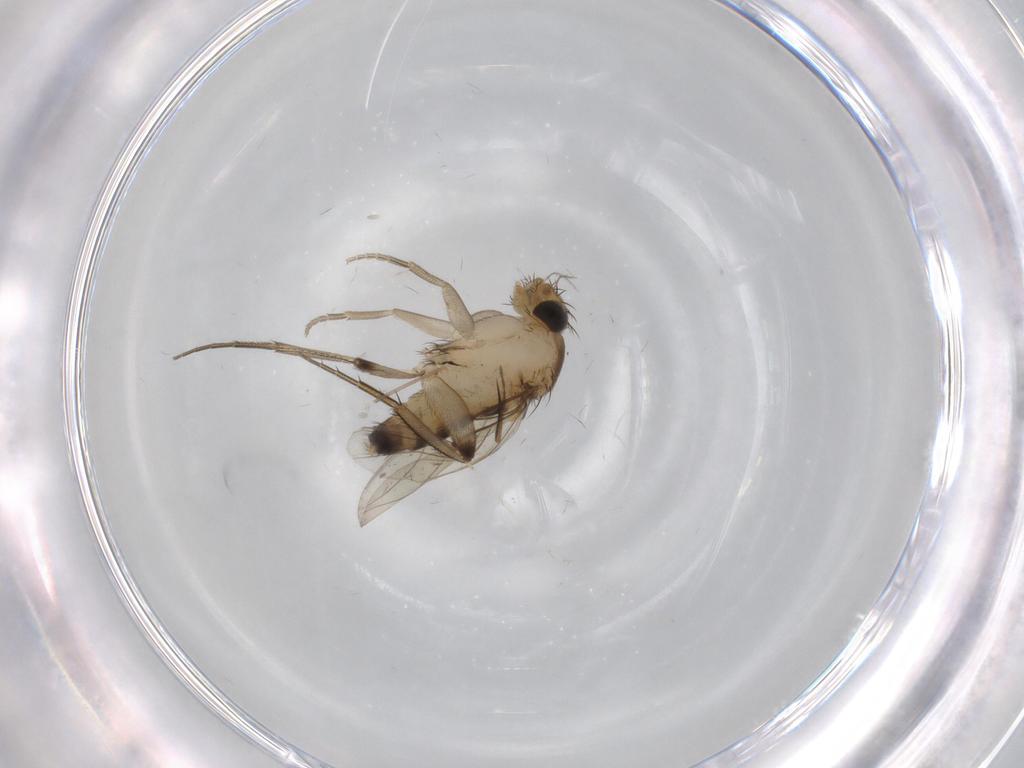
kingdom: Animalia
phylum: Arthropoda
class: Insecta
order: Diptera
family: Ceratopogonidae
